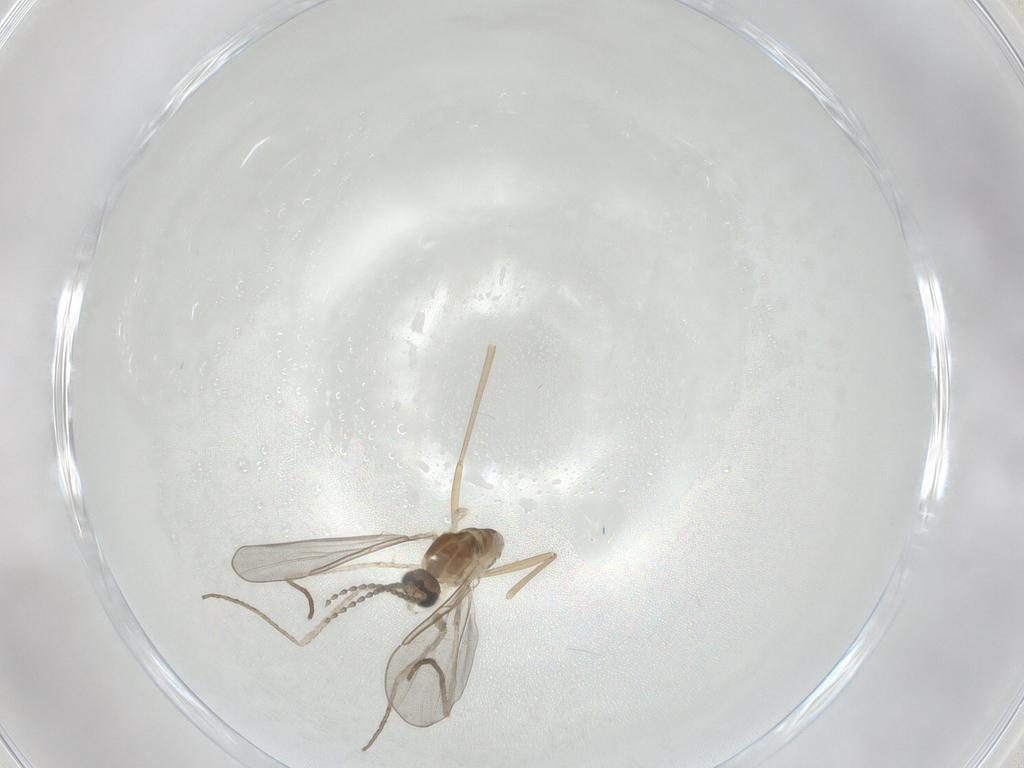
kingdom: Animalia
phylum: Arthropoda
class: Insecta
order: Diptera
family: Cecidomyiidae
